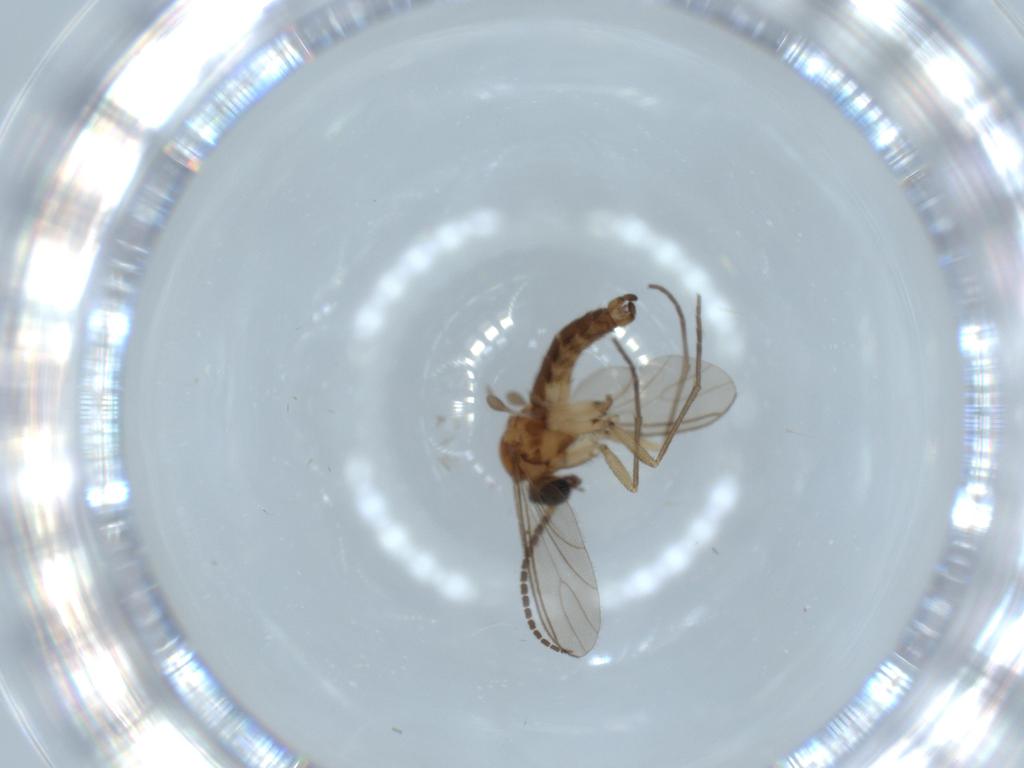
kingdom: Animalia
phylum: Arthropoda
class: Insecta
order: Diptera
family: Sciaridae
